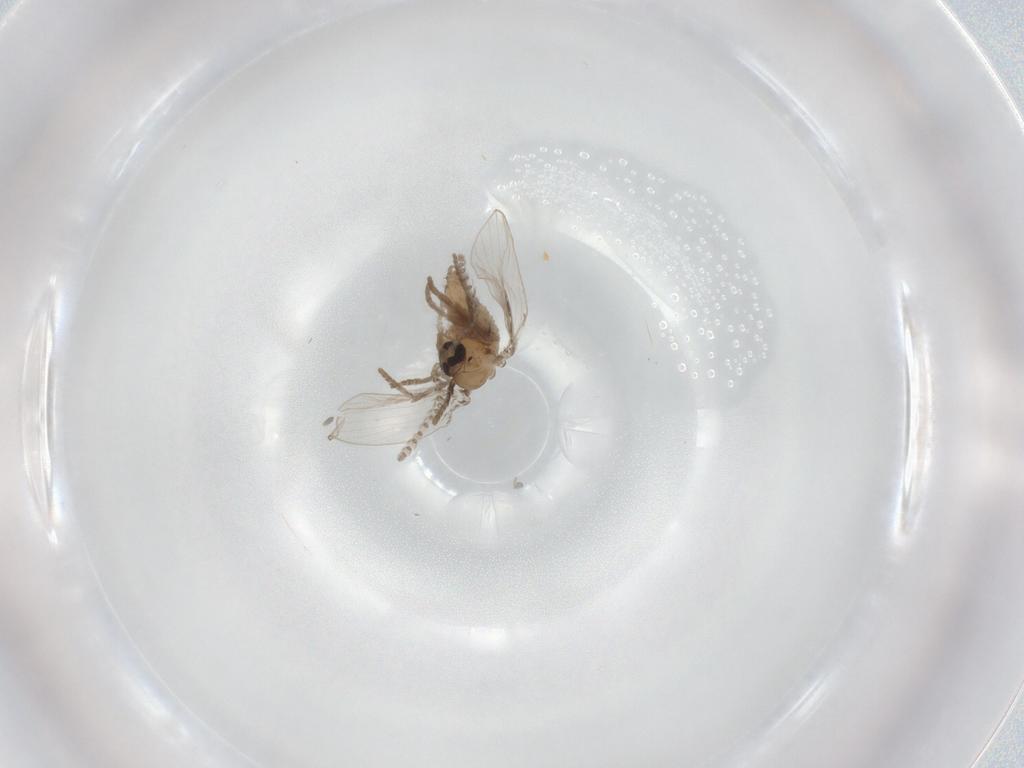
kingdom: Animalia
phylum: Arthropoda
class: Insecta
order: Diptera
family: Psychodidae
